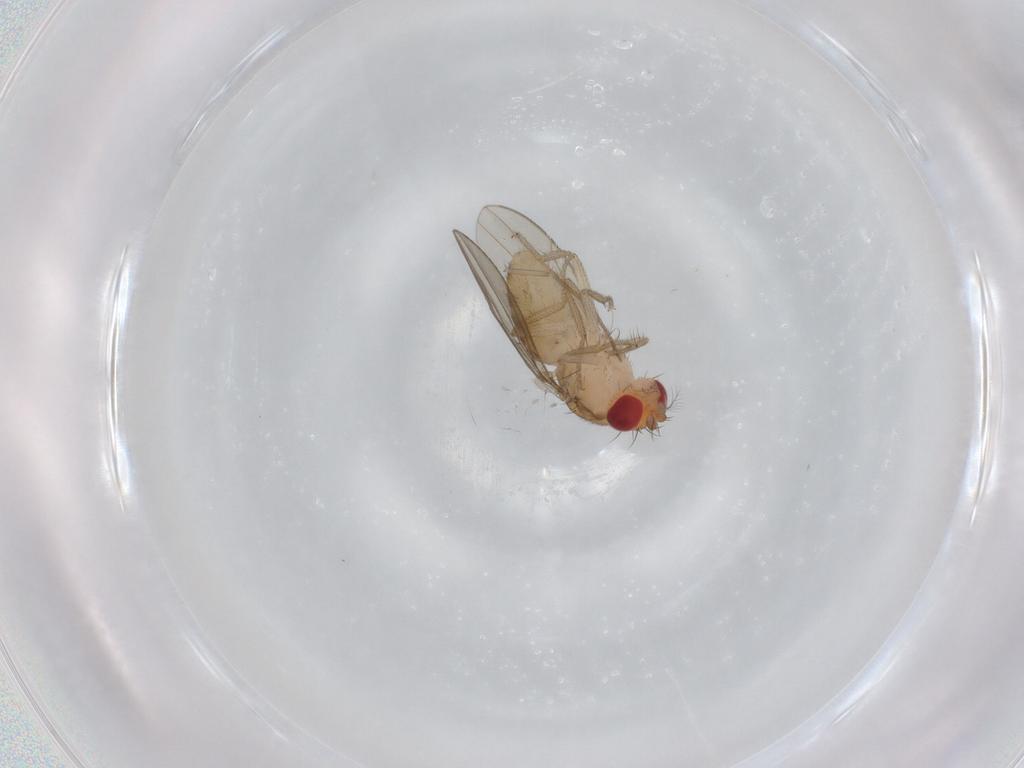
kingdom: Animalia
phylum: Arthropoda
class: Insecta
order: Diptera
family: Drosophilidae
